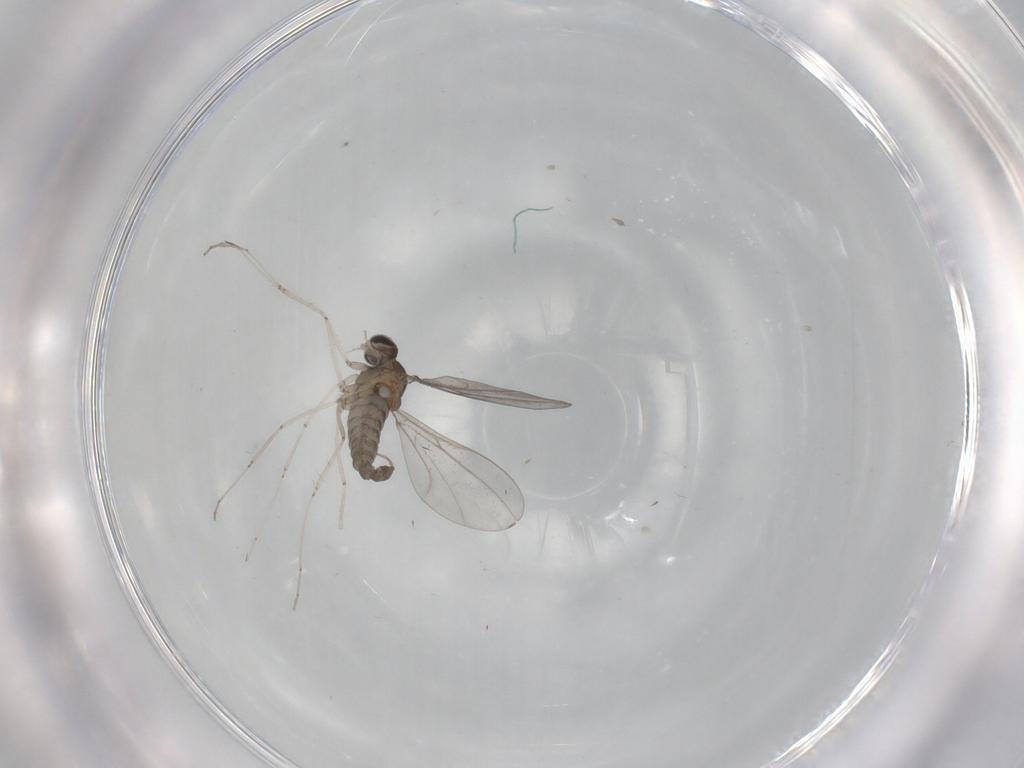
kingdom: Animalia
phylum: Arthropoda
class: Insecta
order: Diptera
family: Cecidomyiidae
